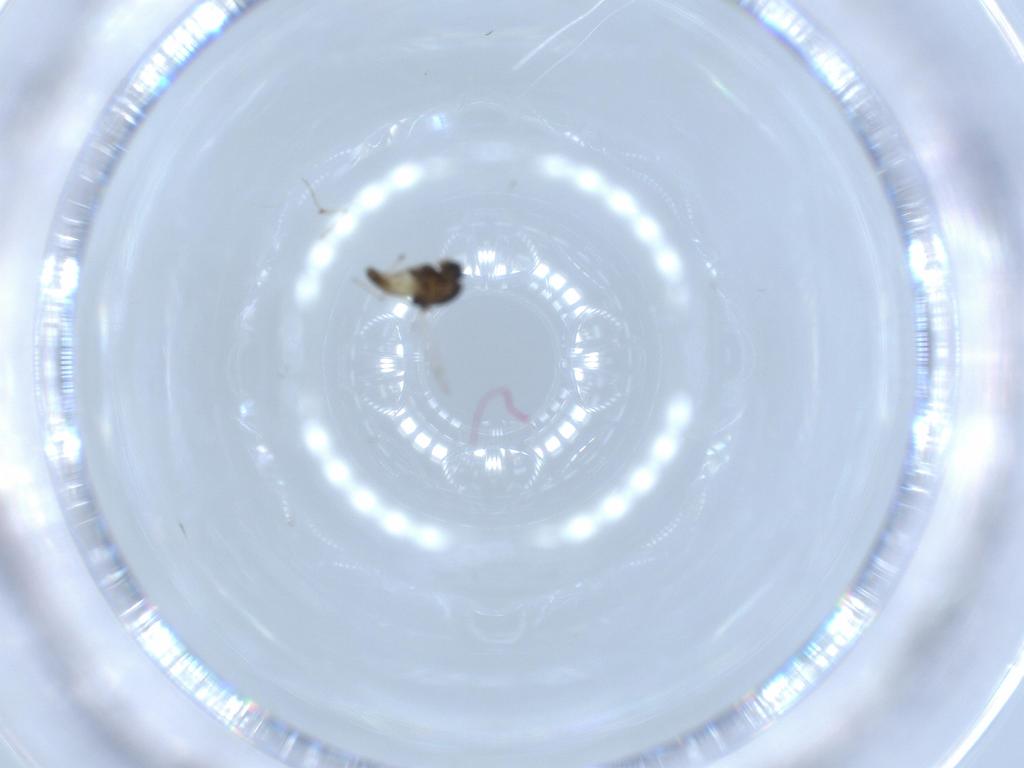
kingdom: Animalia
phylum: Arthropoda
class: Insecta
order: Diptera
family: Chironomidae
